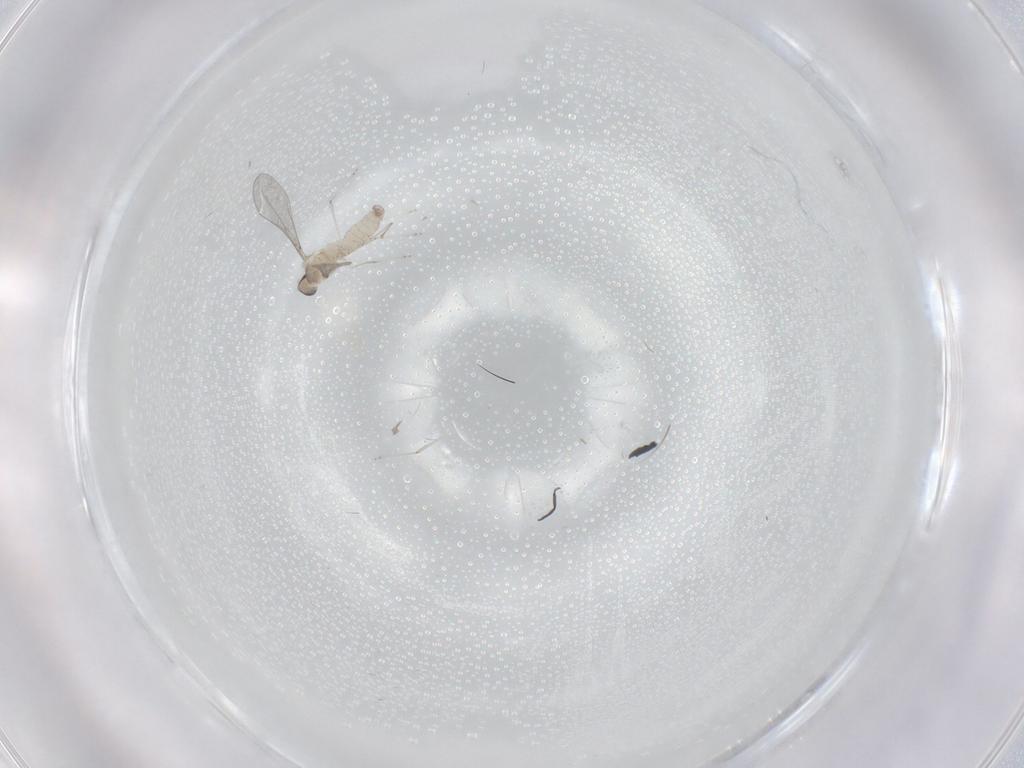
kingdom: Animalia
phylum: Arthropoda
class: Insecta
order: Diptera
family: Cecidomyiidae
